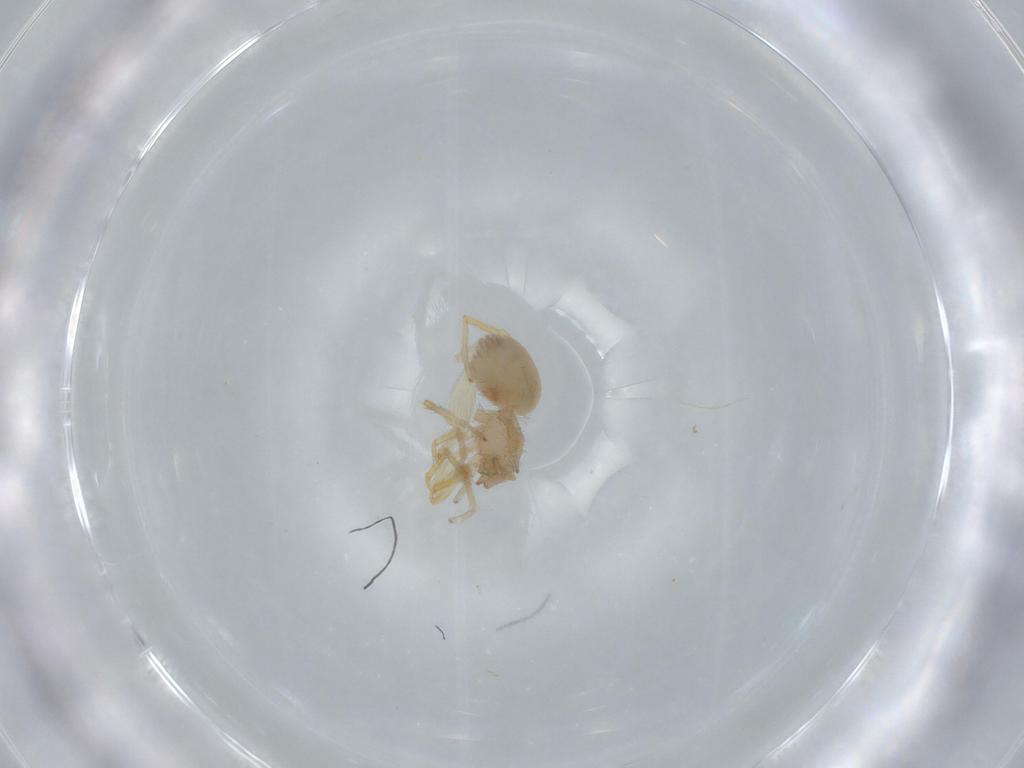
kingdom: Animalia
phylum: Arthropoda
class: Arachnida
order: Araneae
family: Oonopidae
